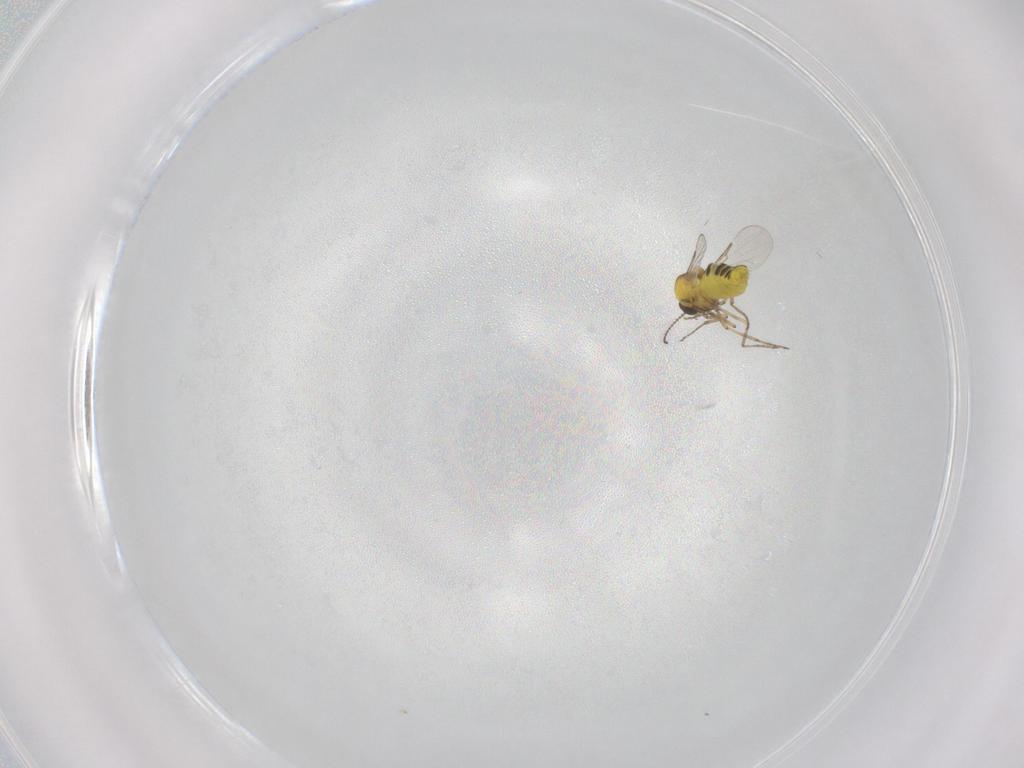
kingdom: Animalia
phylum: Arthropoda
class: Insecta
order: Diptera
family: Ceratopogonidae
